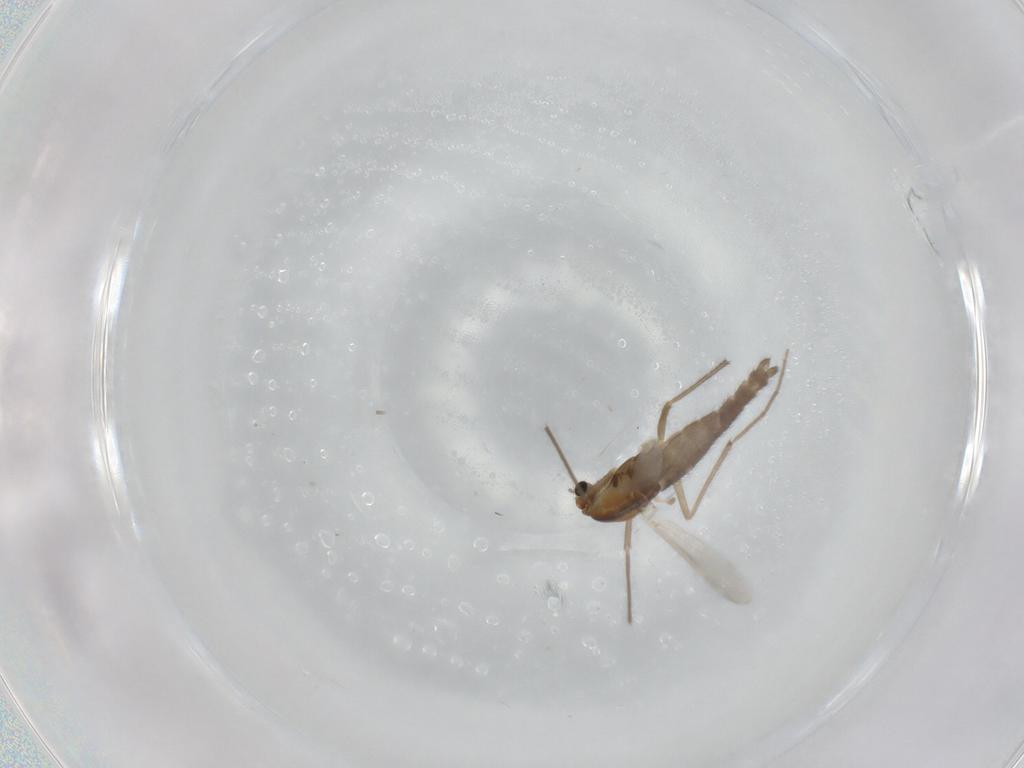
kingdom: Animalia
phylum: Arthropoda
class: Insecta
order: Diptera
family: Chironomidae
